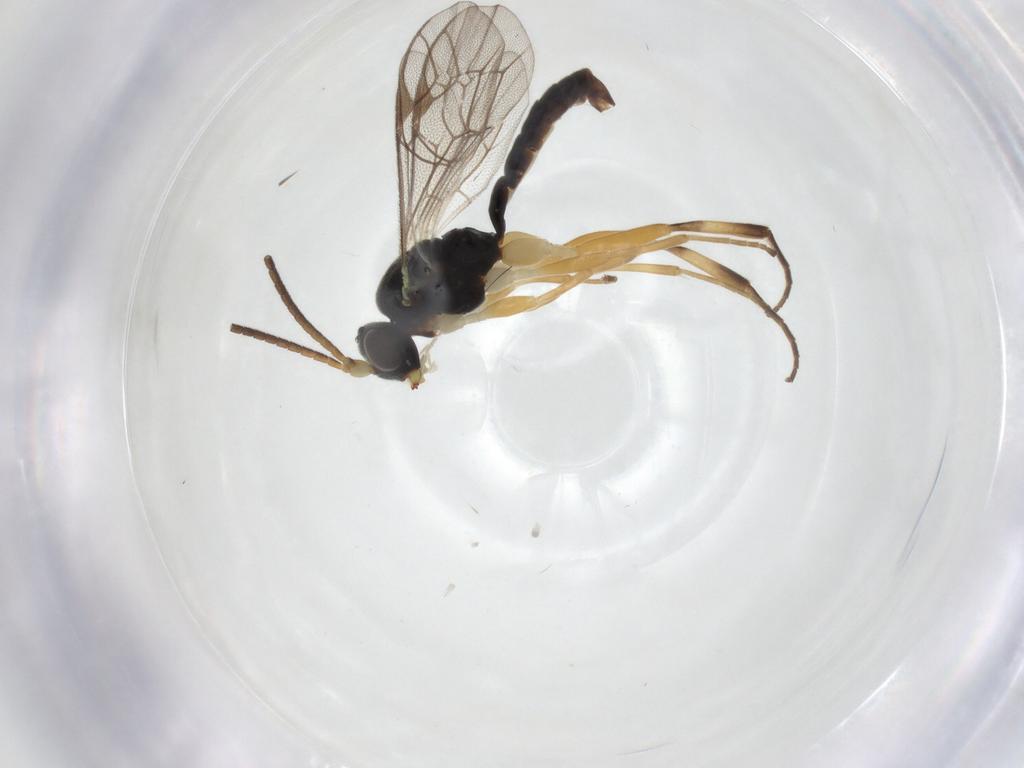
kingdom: Animalia
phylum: Arthropoda
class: Insecta
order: Hymenoptera
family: Ichneumonidae
